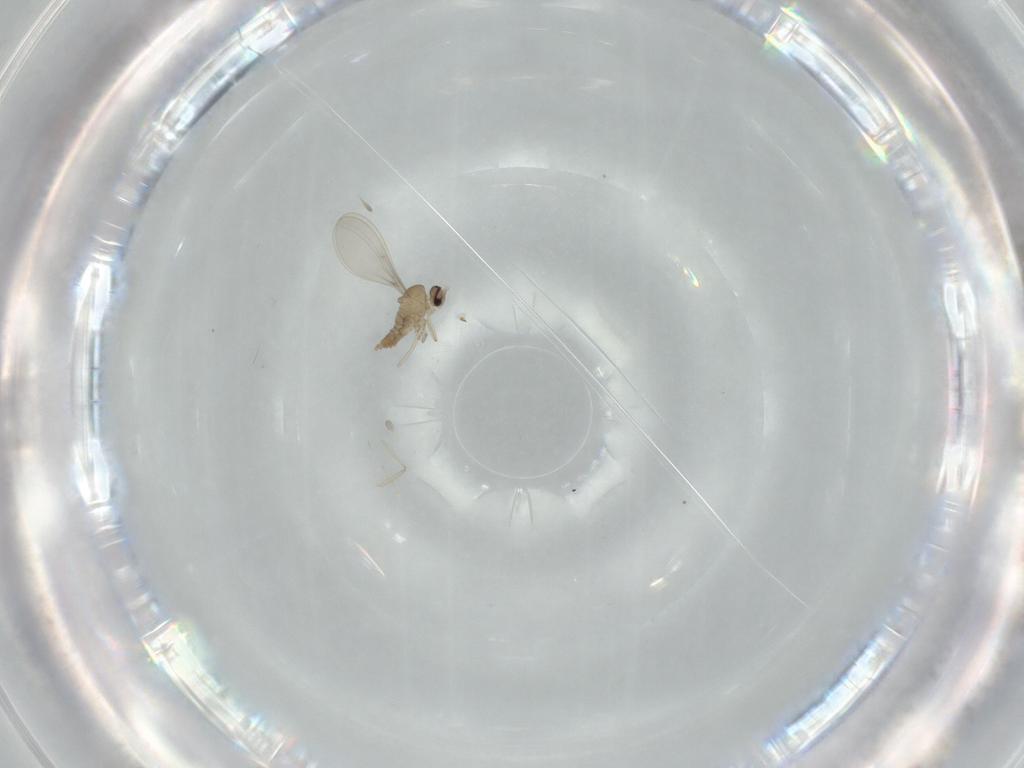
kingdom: Animalia
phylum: Arthropoda
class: Insecta
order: Diptera
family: Cecidomyiidae
